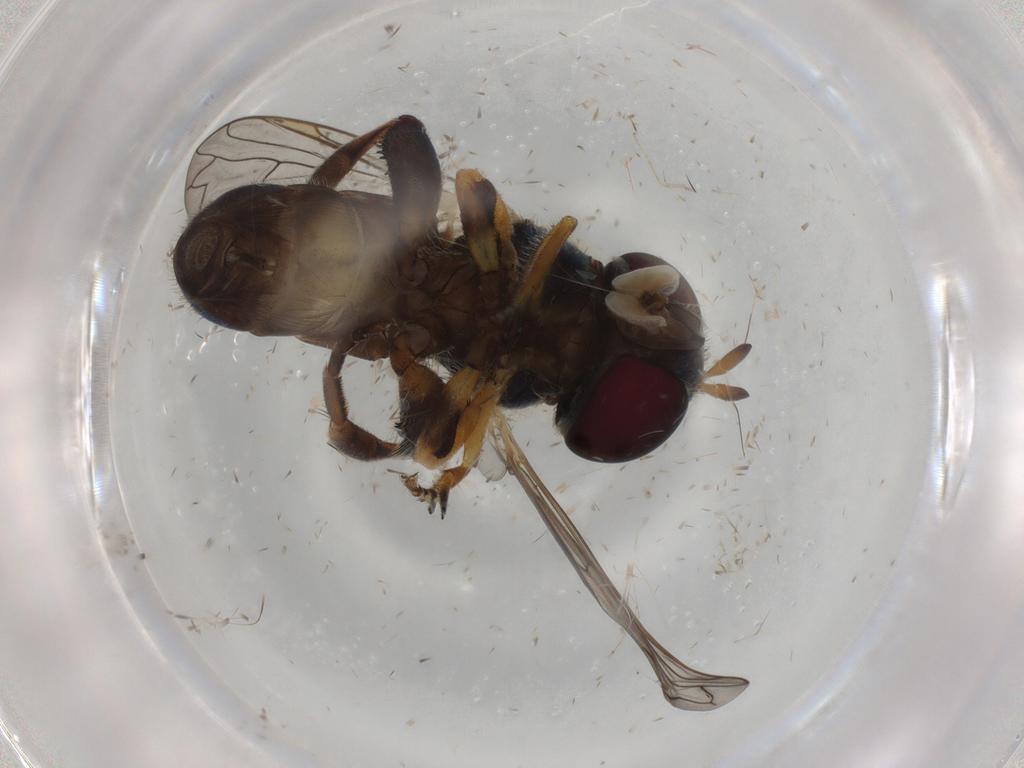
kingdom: Animalia
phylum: Arthropoda
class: Insecta
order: Diptera
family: Syrphidae
